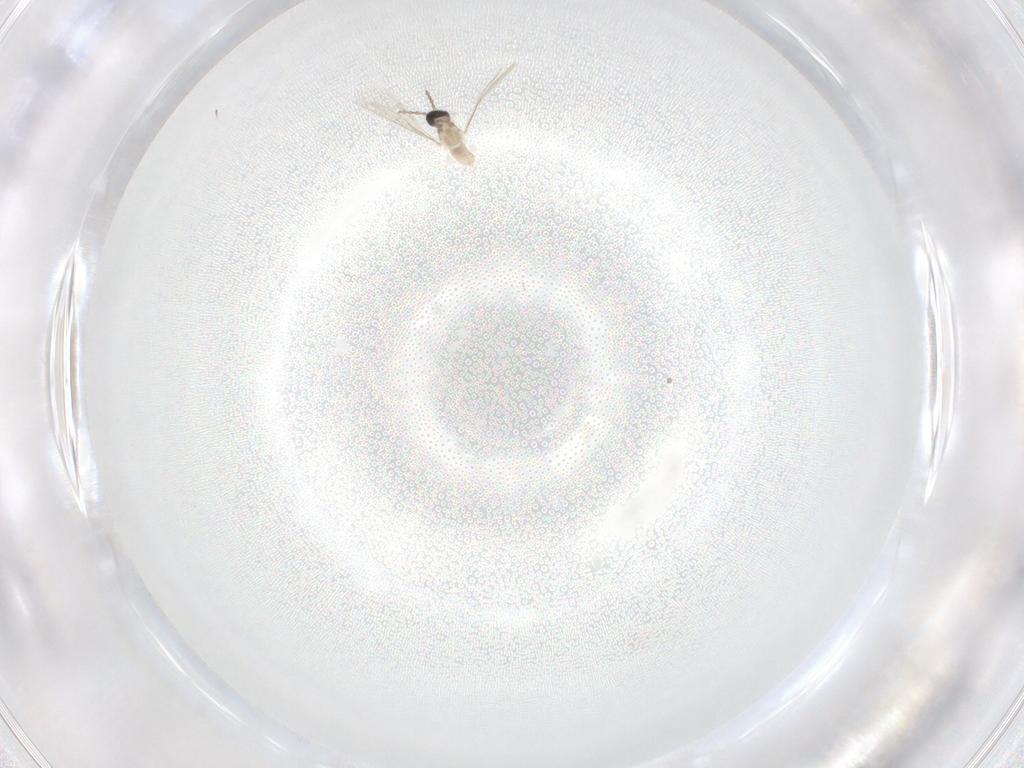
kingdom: Animalia
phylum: Arthropoda
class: Insecta
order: Diptera
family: Cecidomyiidae
